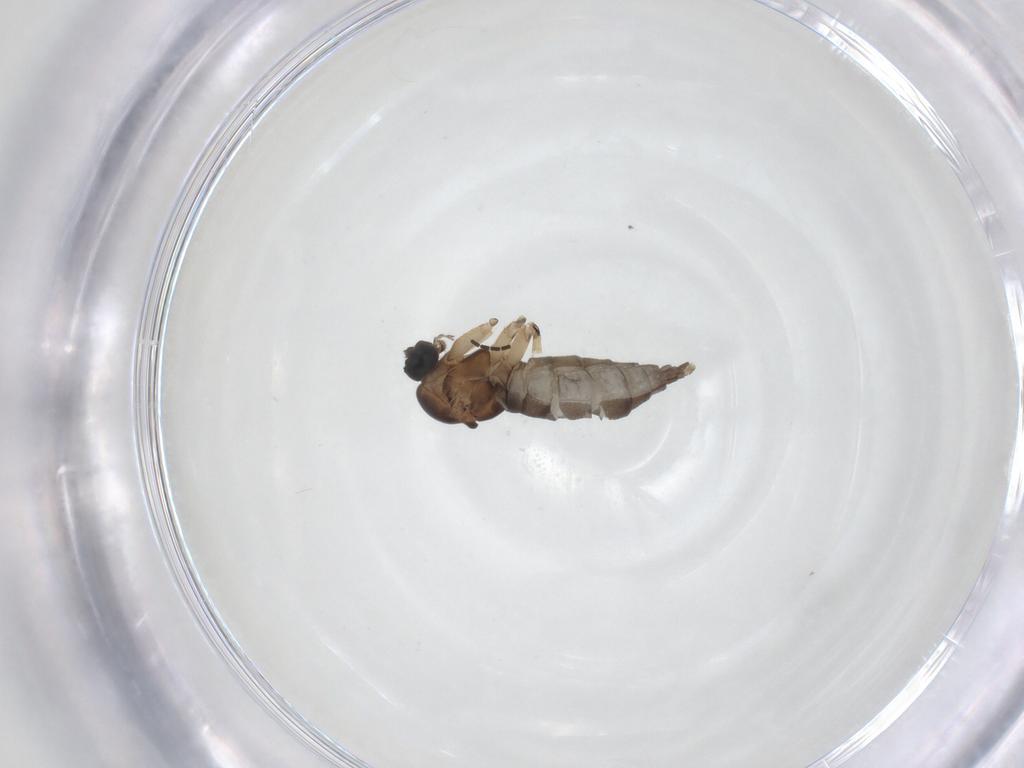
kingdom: Animalia
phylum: Arthropoda
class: Insecta
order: Diptera
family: Sciaridae
